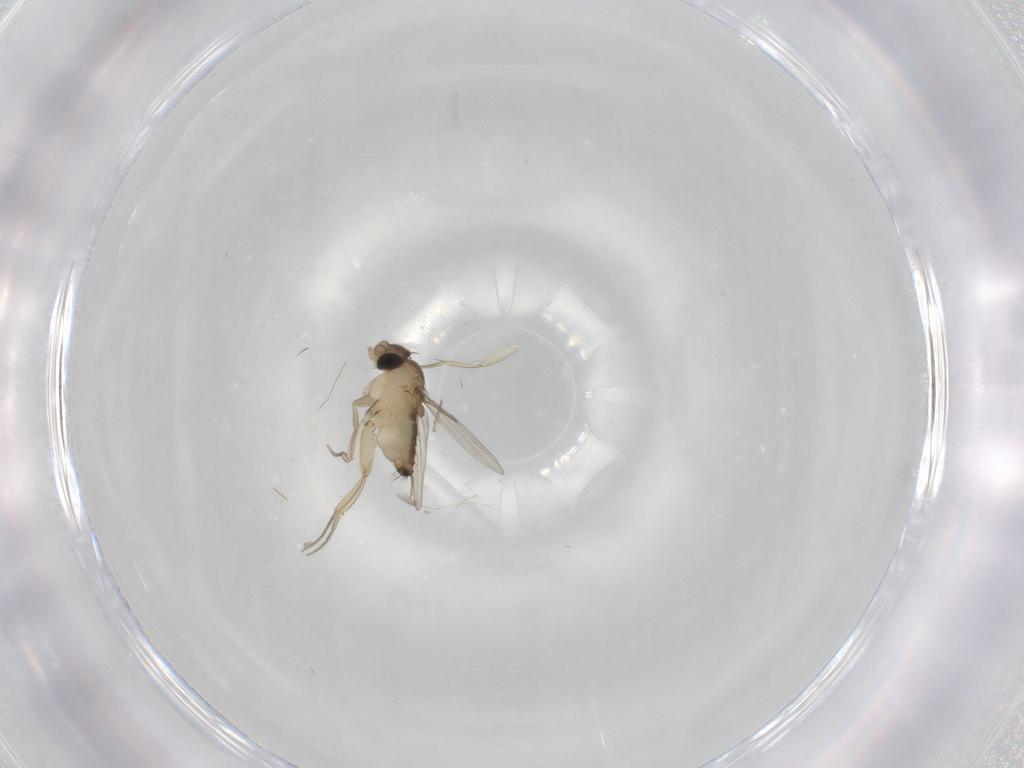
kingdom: Animalia
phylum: Arthropoda
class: Insecta
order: Diptera
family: Phoridae
